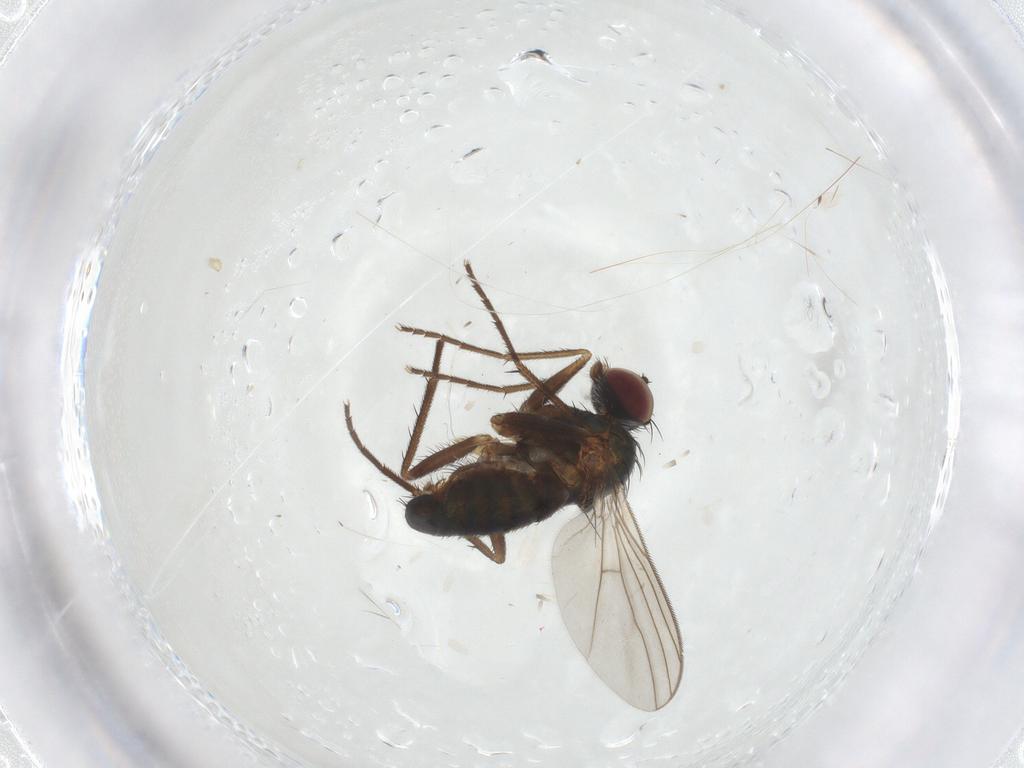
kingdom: Animalia
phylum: Arthropoda
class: Insecta
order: Diptera
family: Dolichopodidae
